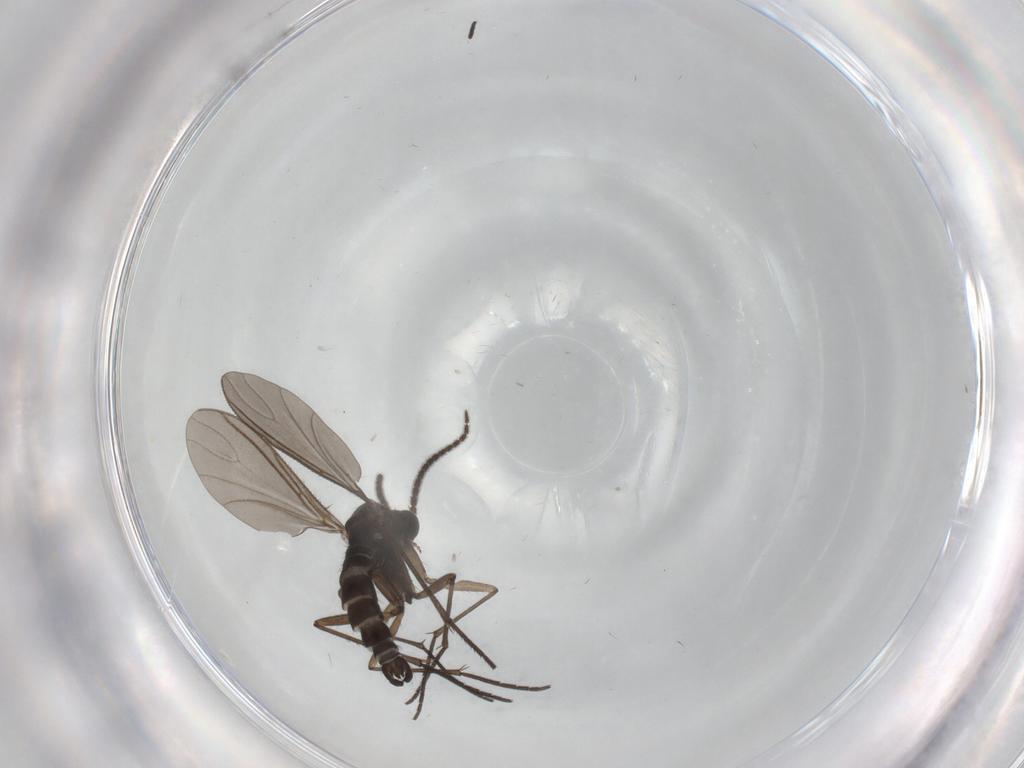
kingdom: Animalia
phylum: Arthropoda
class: Insecta
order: Diptera
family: Sciaridae
